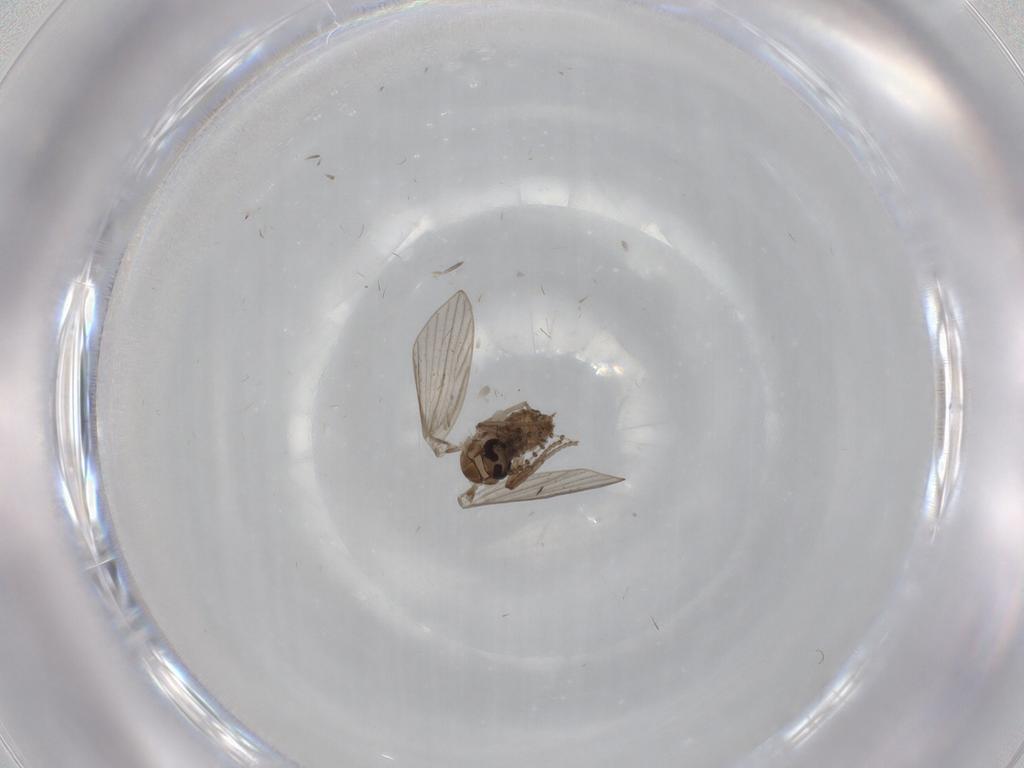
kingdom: Animalia
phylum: Arthropoda
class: Insecta
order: Diptera
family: Psychodidae
